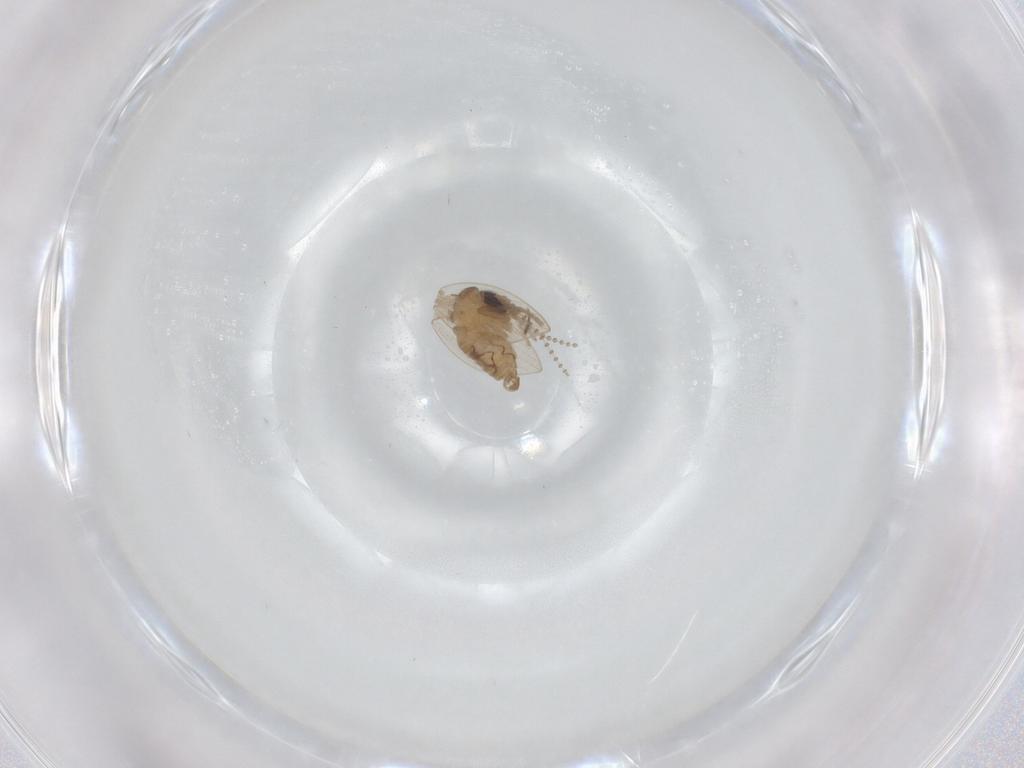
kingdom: Animalia
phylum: Arthropoda
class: Insecta
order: Diptera
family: Psychodidae
